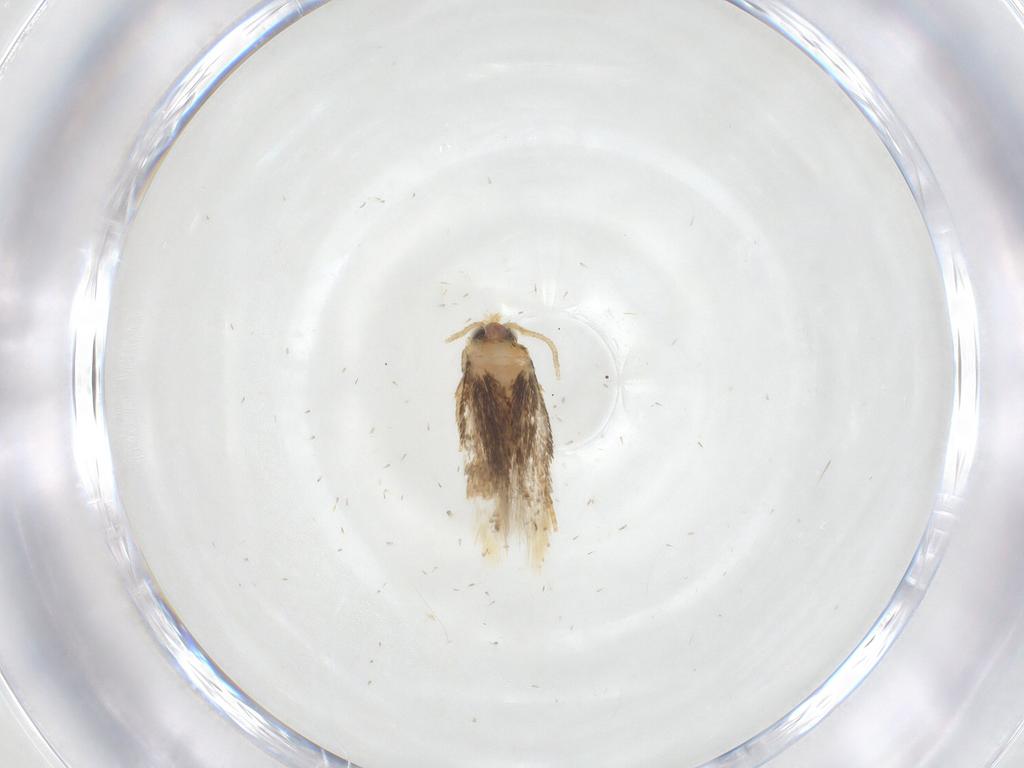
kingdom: Animalia
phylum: Arthropoda
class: Insecta
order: Lepidoptera
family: Nepticulidae
